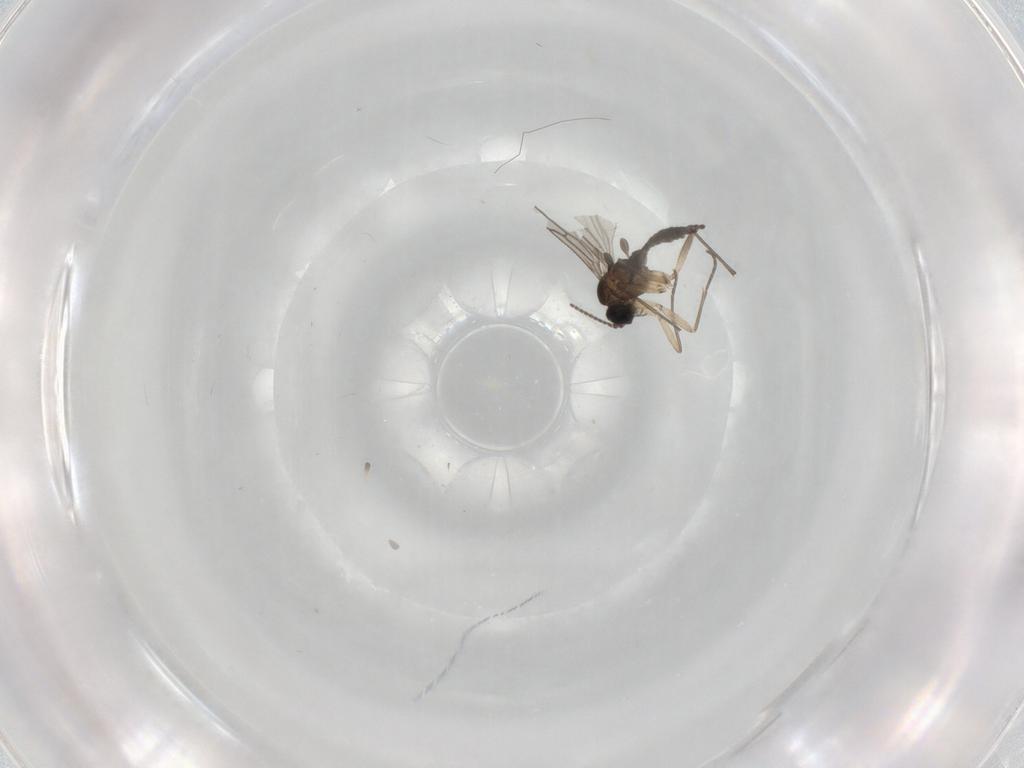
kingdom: Animalia
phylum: Arthropoda
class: Insecta
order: Diptera
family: Sciaridae
